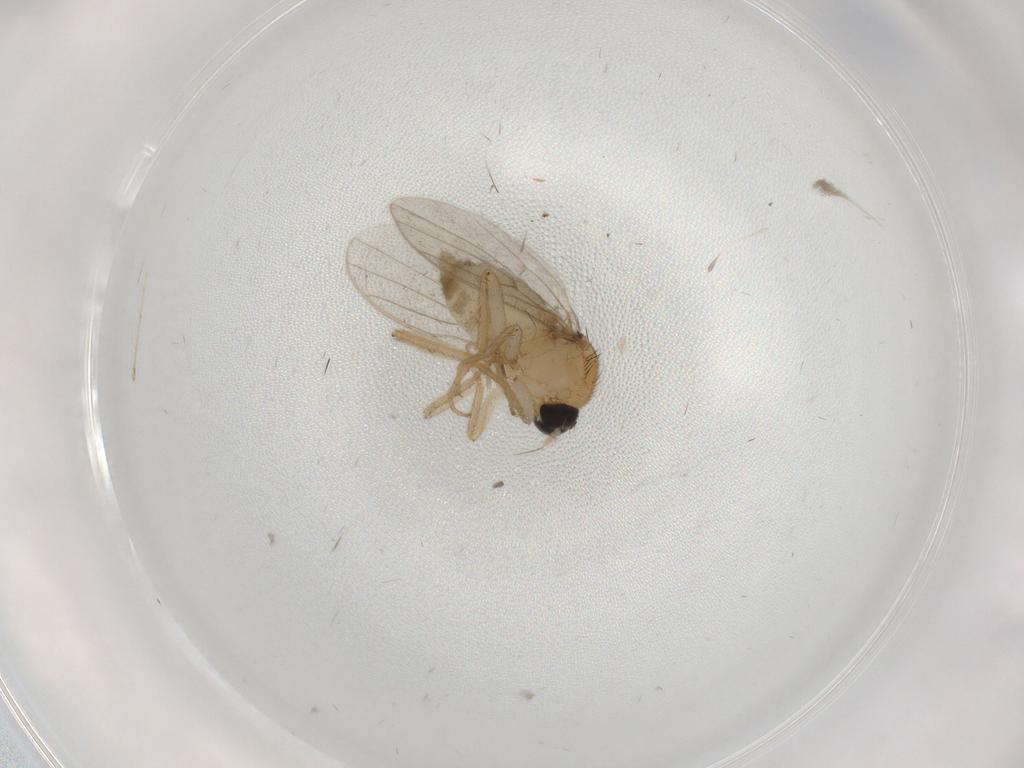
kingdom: Animalia
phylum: Arthropoda
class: Insecta
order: Diptera
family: Hybotidae
